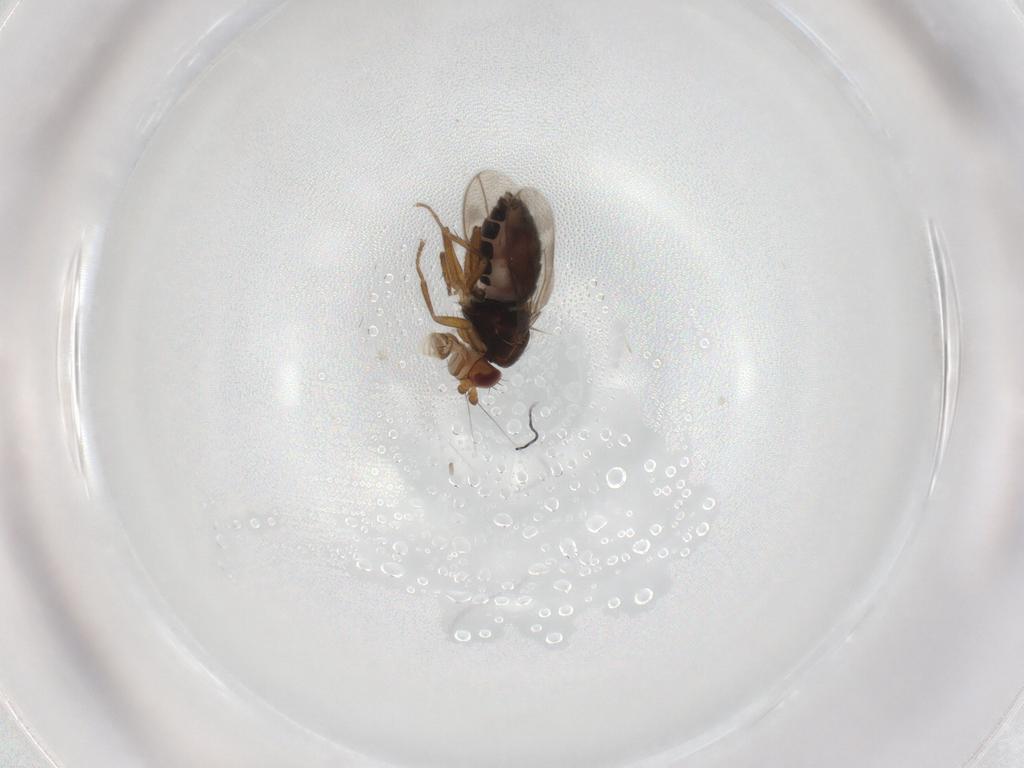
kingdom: Animalia
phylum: Arthropoda
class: Insecta
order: Diptera
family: Sphaeroceridae
